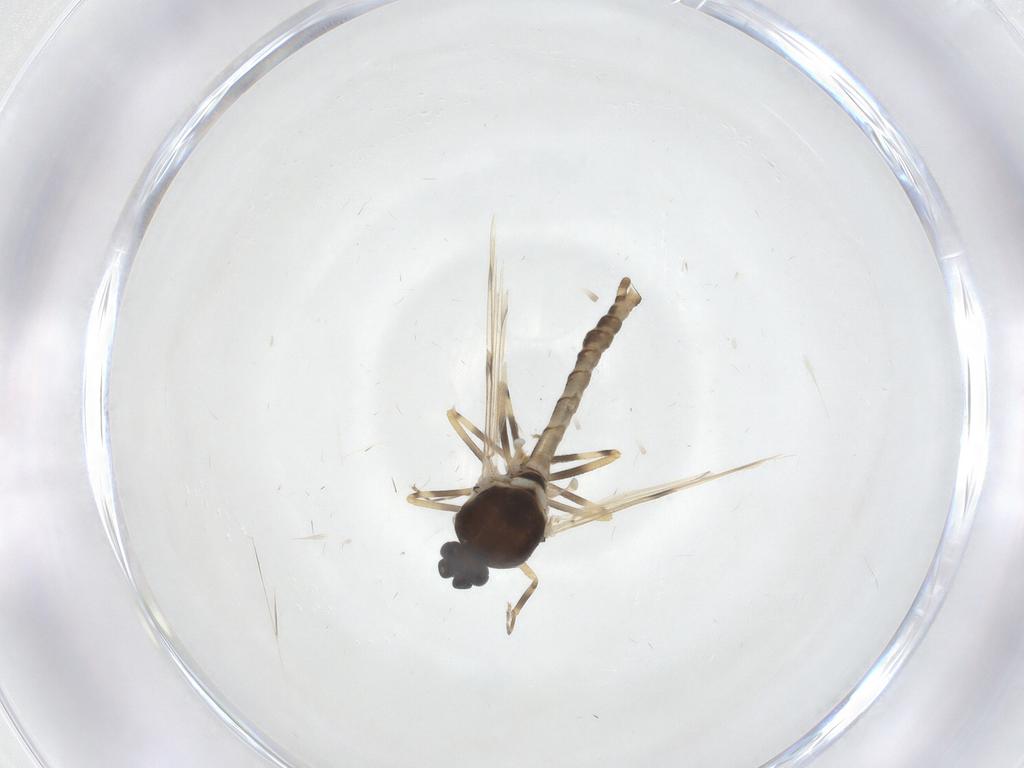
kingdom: Animalia
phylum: Arthropoda
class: Insecta
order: Diptera
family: Ceratopogonidae
